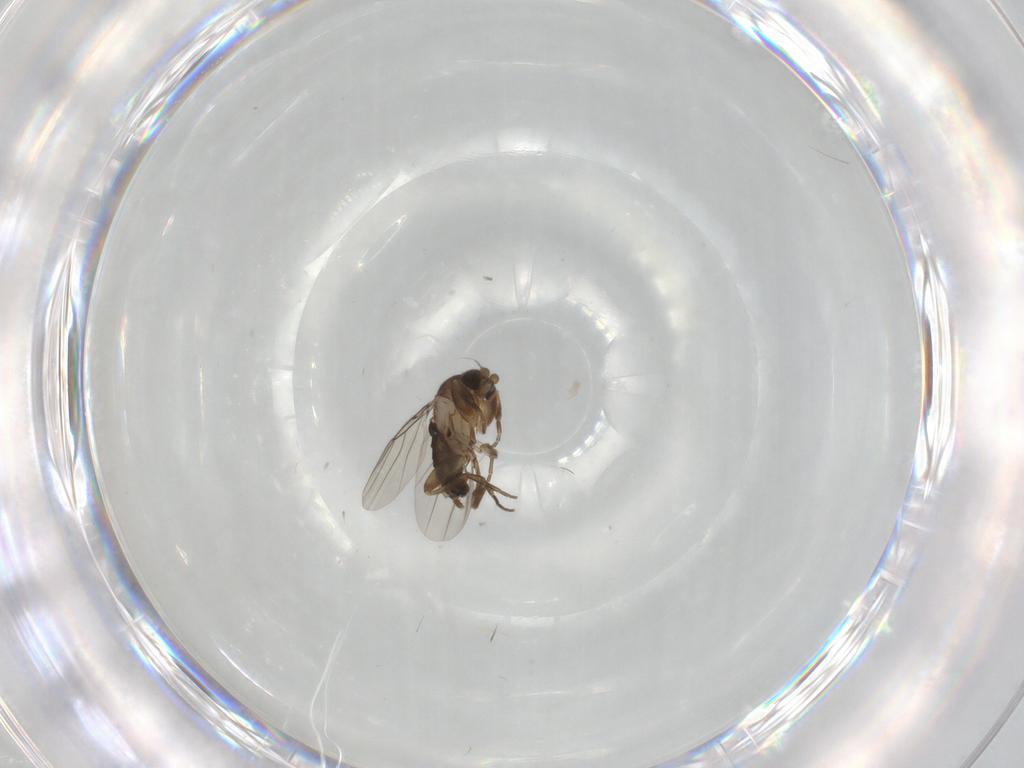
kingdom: Animalia
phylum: Arthropoda
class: Insecta
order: Diptera
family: Phoridae
